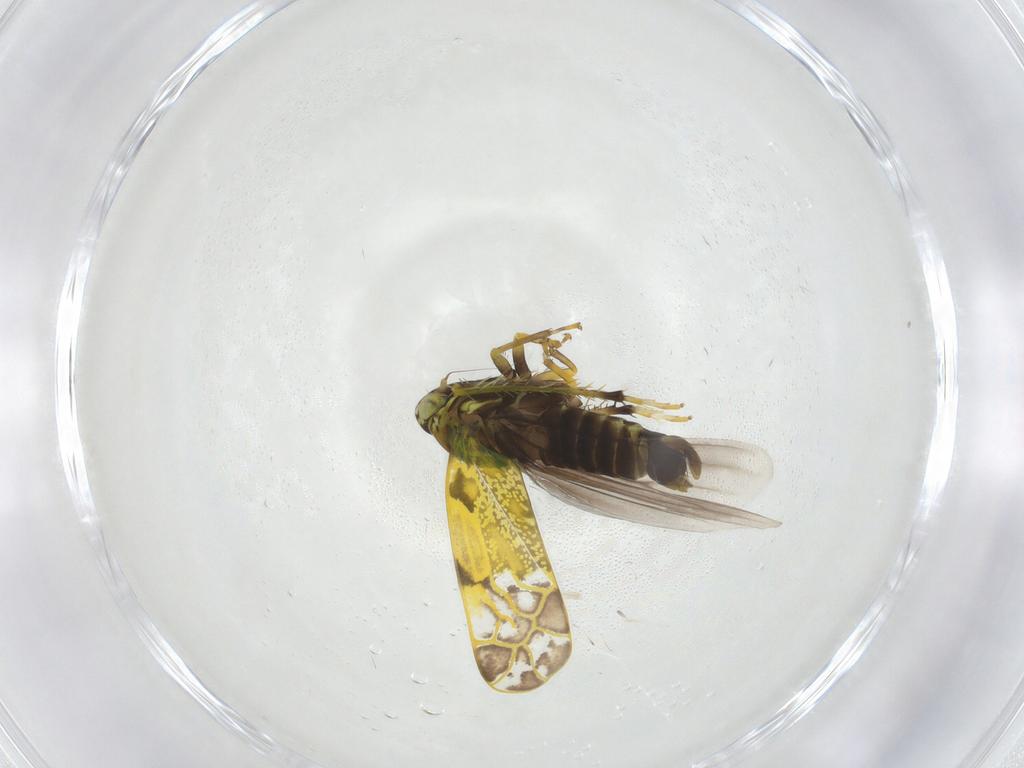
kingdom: Animalia
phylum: Arthropoda
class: Insecta
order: Hemiptera
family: Cicadellidae
